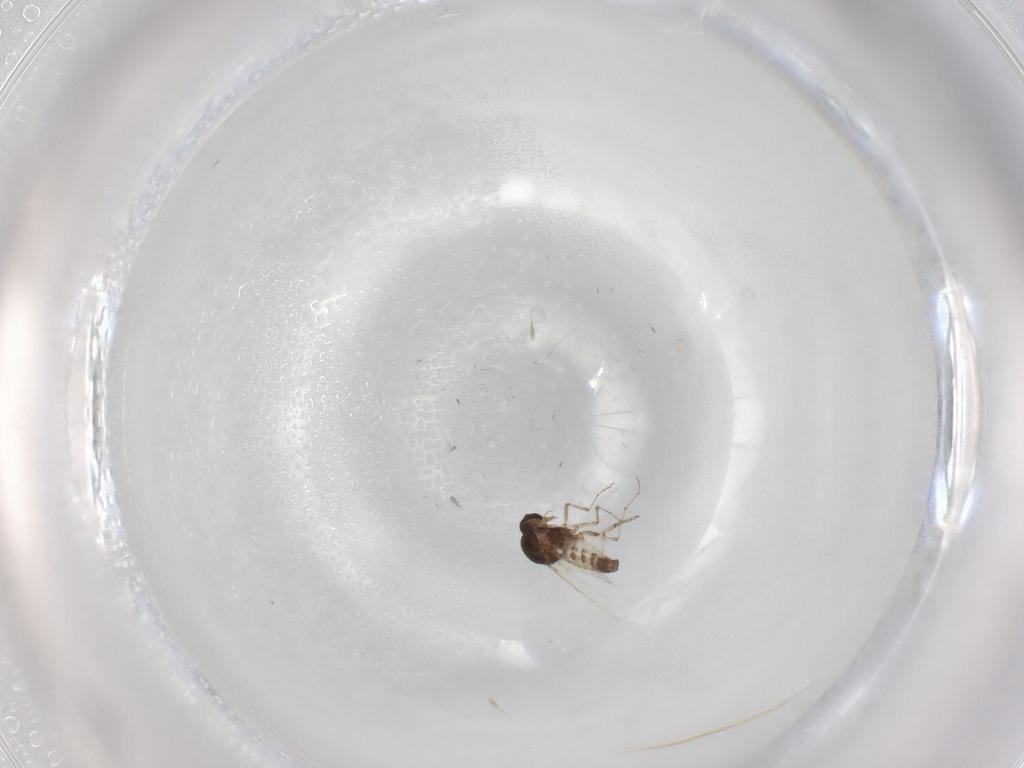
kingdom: Animalia
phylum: Arthropoda
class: Insecta
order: Diptera
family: Ceratopogonidae
